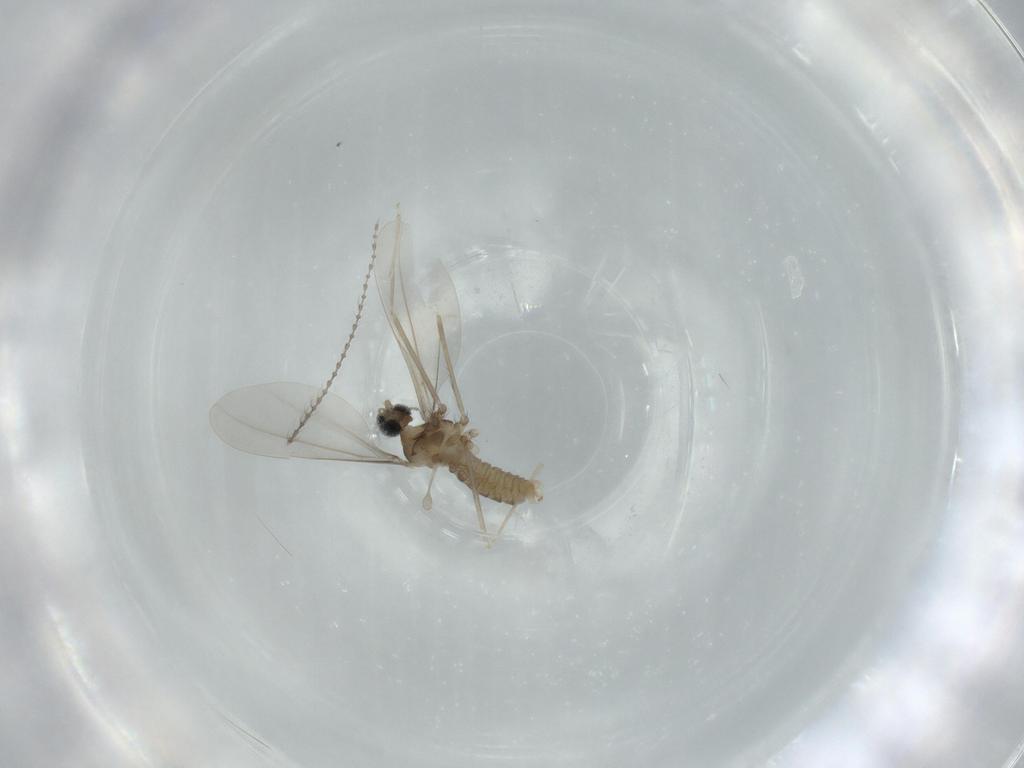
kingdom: Animalia
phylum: Arthropoda
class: Insecta
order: Diptera
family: Cecidomyiidae
